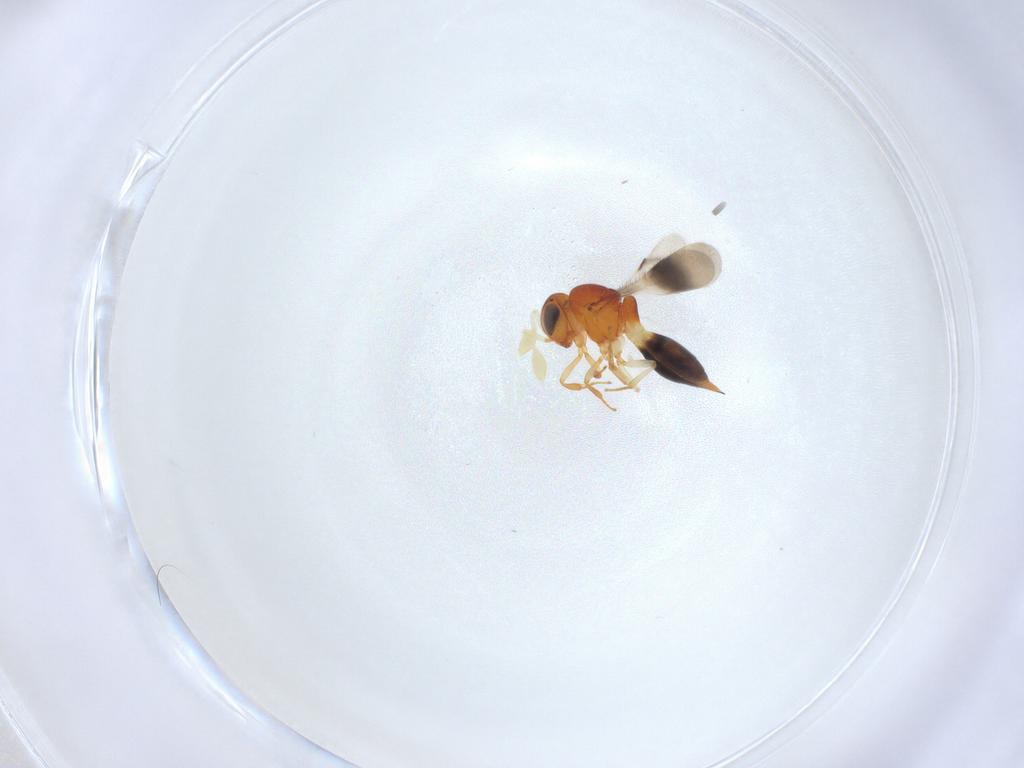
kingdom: Animalia
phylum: Arthropoda
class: Insecta
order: Hymenoptera
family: Scelionidae
